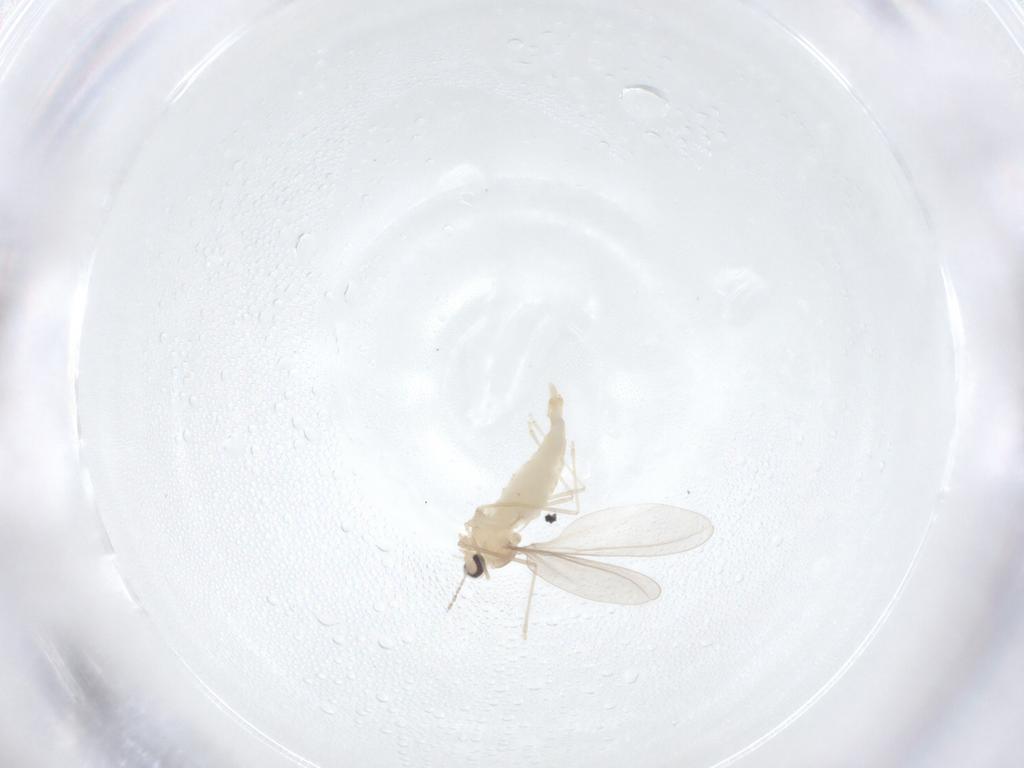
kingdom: Animalia
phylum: Arthropoda
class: Insecta
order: Diptera
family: Cecidomyiidae
